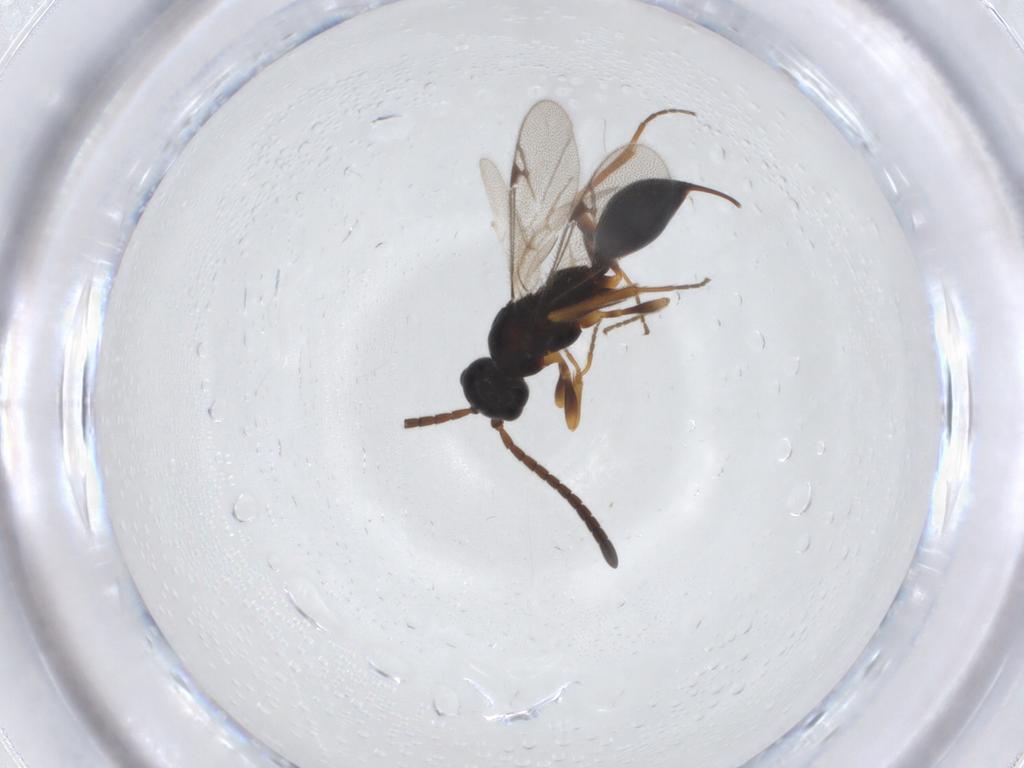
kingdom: Animalia
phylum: Arthropoda
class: Insecta
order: Hymenoptera
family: Proctotrupidae
